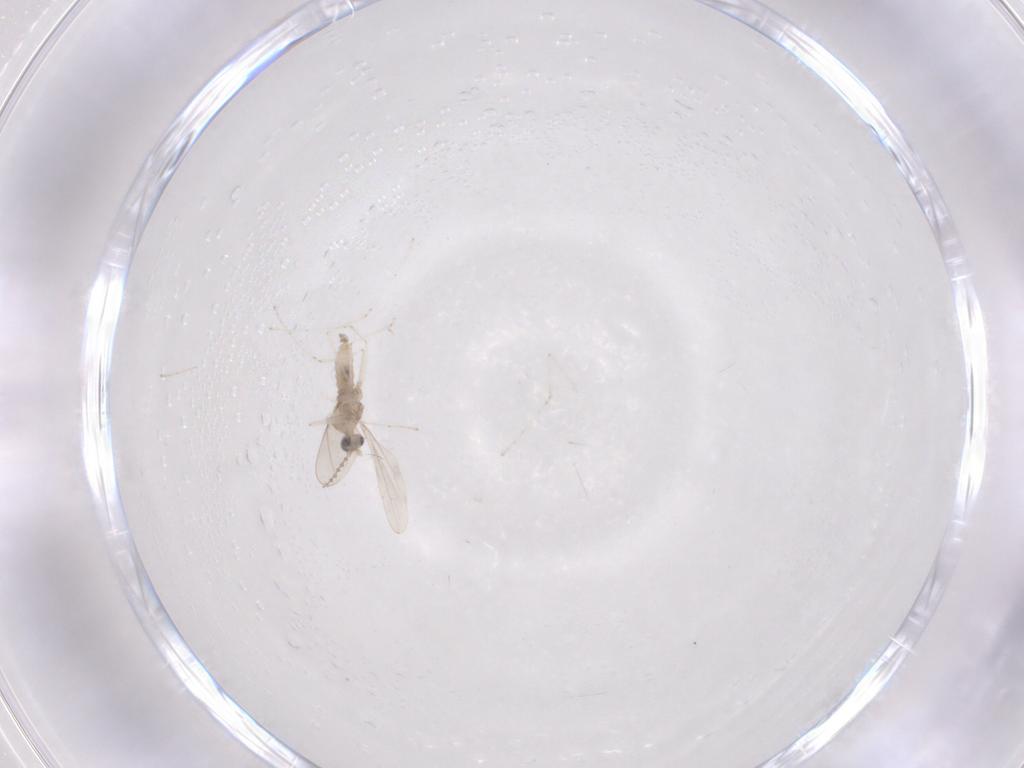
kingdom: Animalia
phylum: Arthropoda
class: Insecta
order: Diptera
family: Cecidomyiidae
